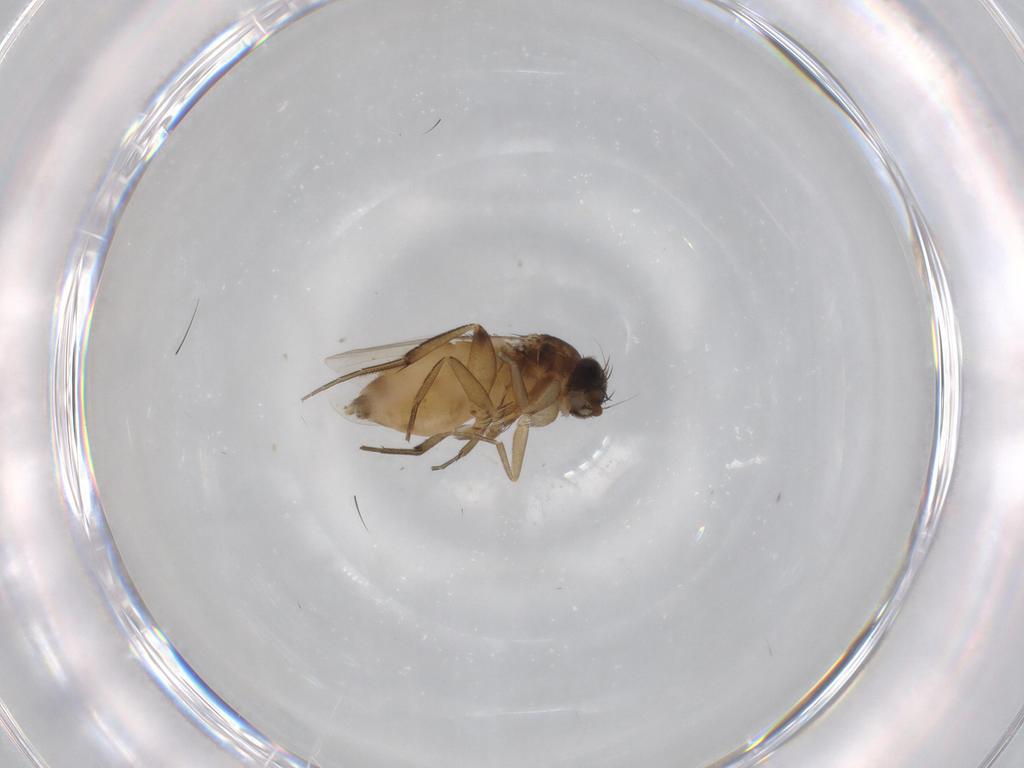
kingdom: Animalia
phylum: Arthropoda
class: Insecta
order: Diptera
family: Phoridae
